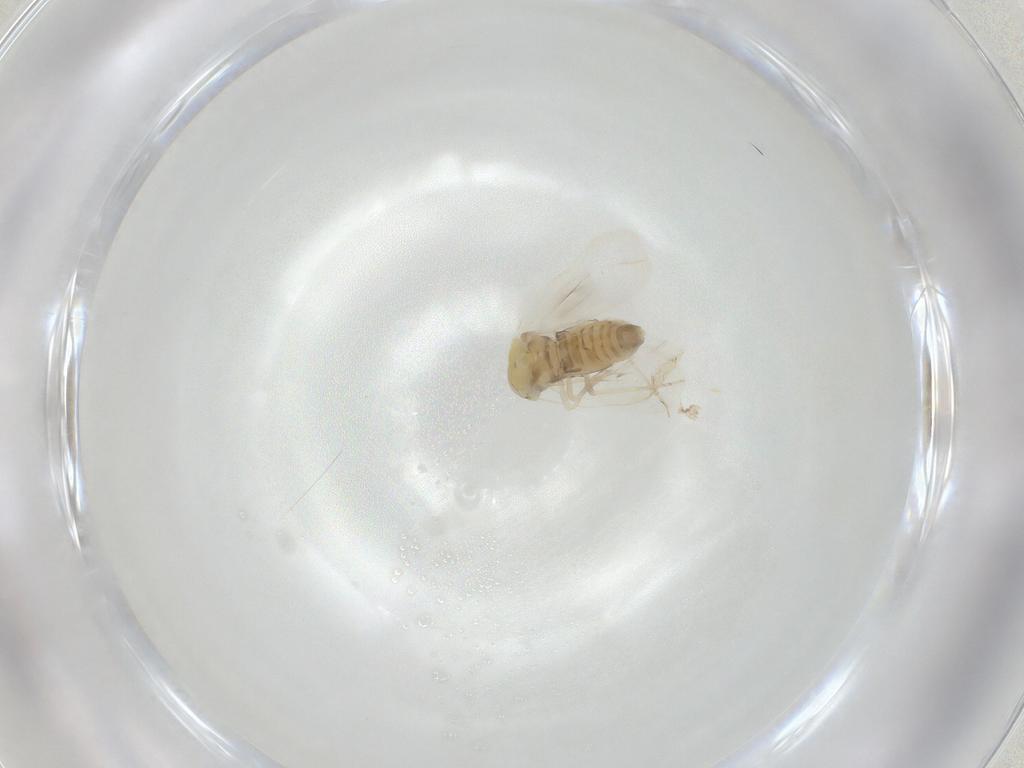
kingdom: Animalia
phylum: Arthropoda
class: Insecta
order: Hemiptera
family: Aleyrodidae
